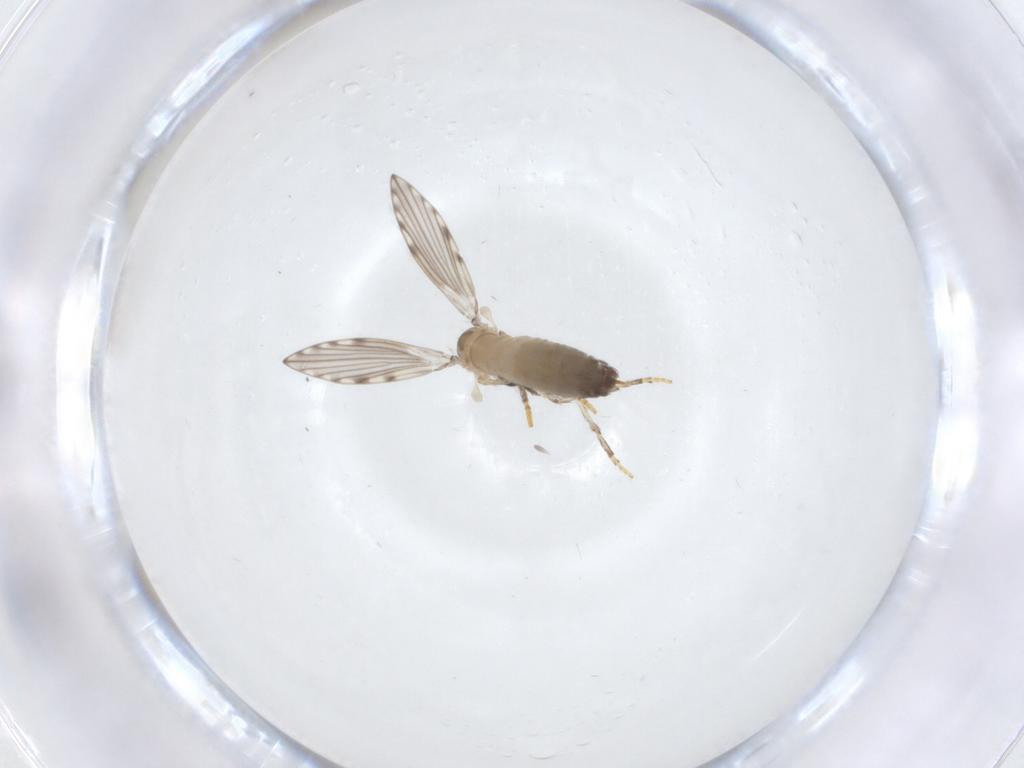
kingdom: Animalia
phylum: Arthropoda
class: Insecta
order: Diptera
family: Psychodidae
